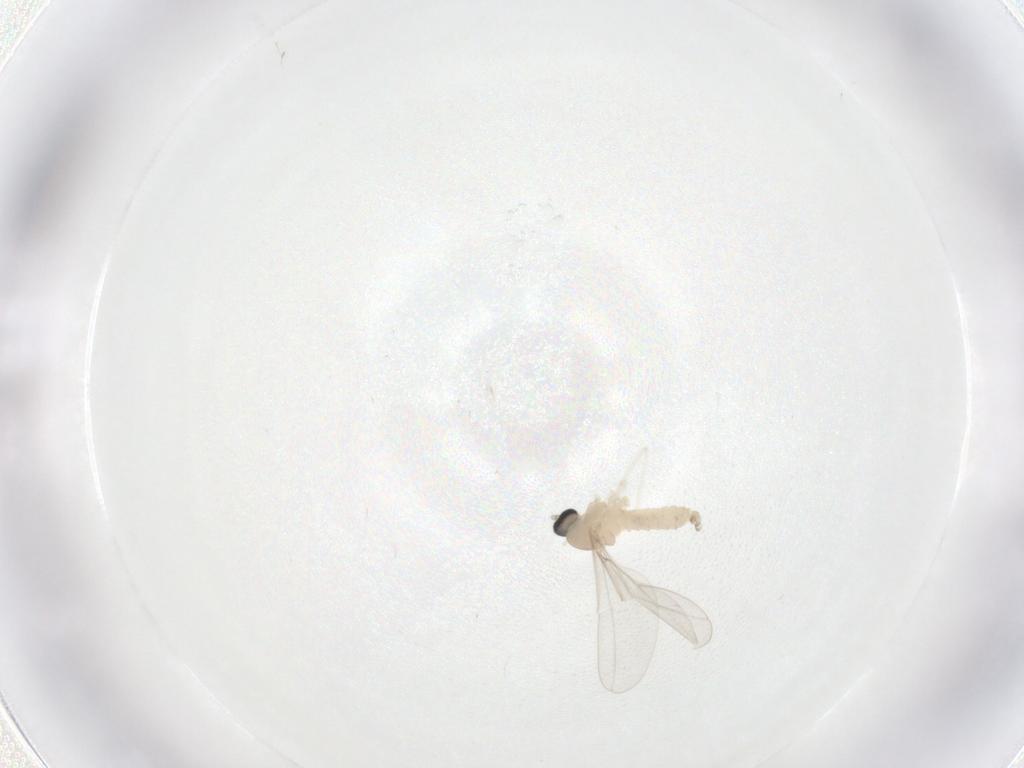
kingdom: Animalia
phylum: Arthropoda
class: Insecta
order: Diptera
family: Cecidomyiidae
